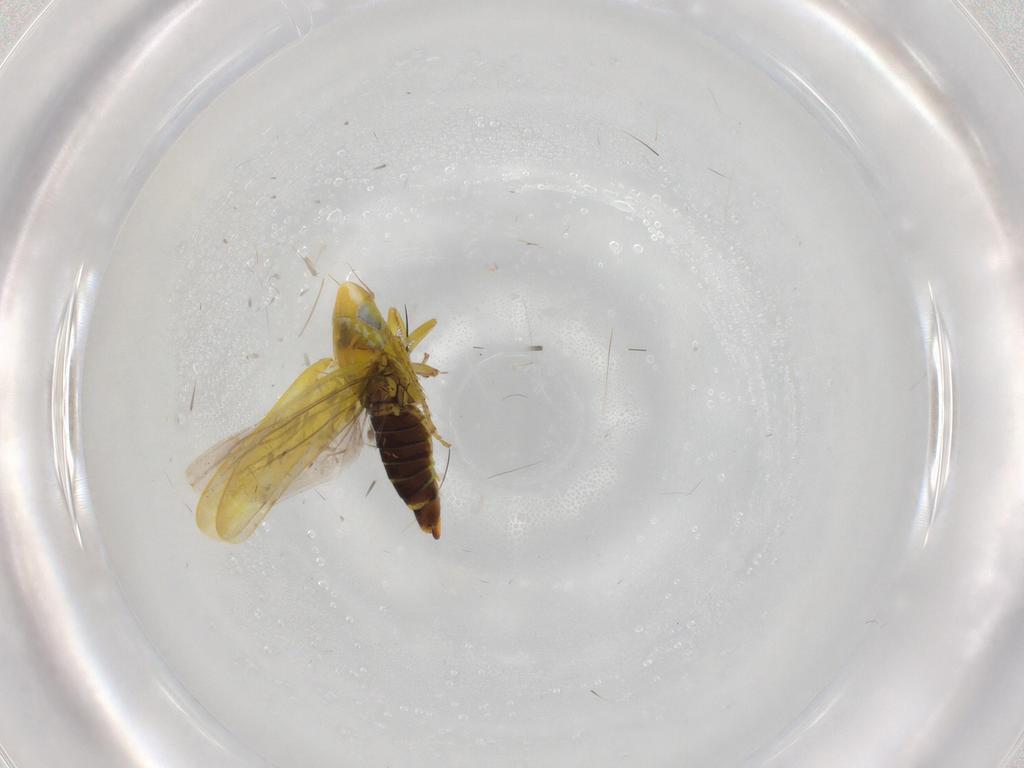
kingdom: Animalia
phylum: Arthropoda
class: Insecta
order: Hemiptera
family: Cicadellidae
